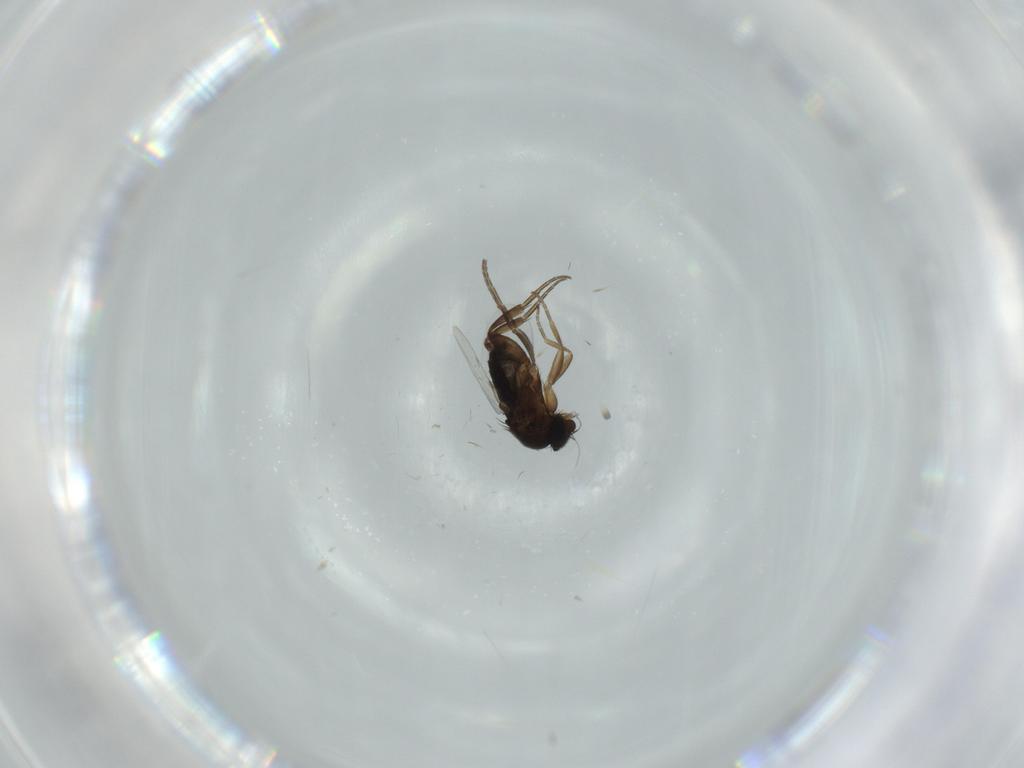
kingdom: Animalia
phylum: Arthropoda
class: Insecta
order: Diptera
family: Phoridae
